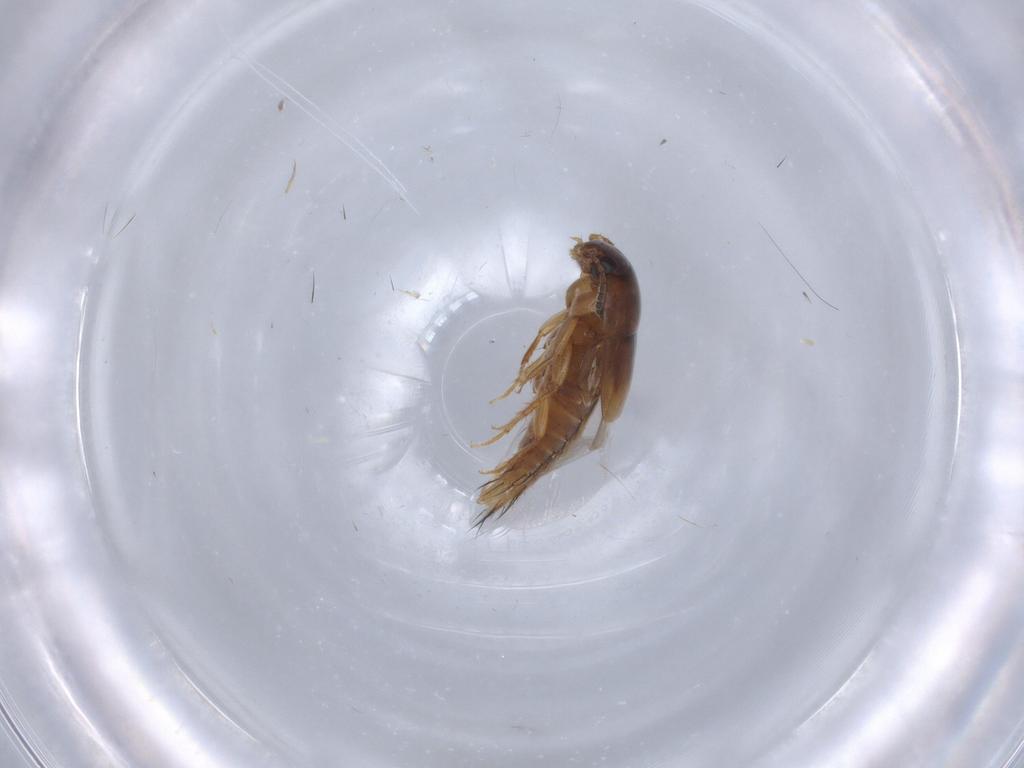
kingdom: Animalia
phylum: Arthropoda
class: Insecta
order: Coleoptera
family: Staphylinidae
